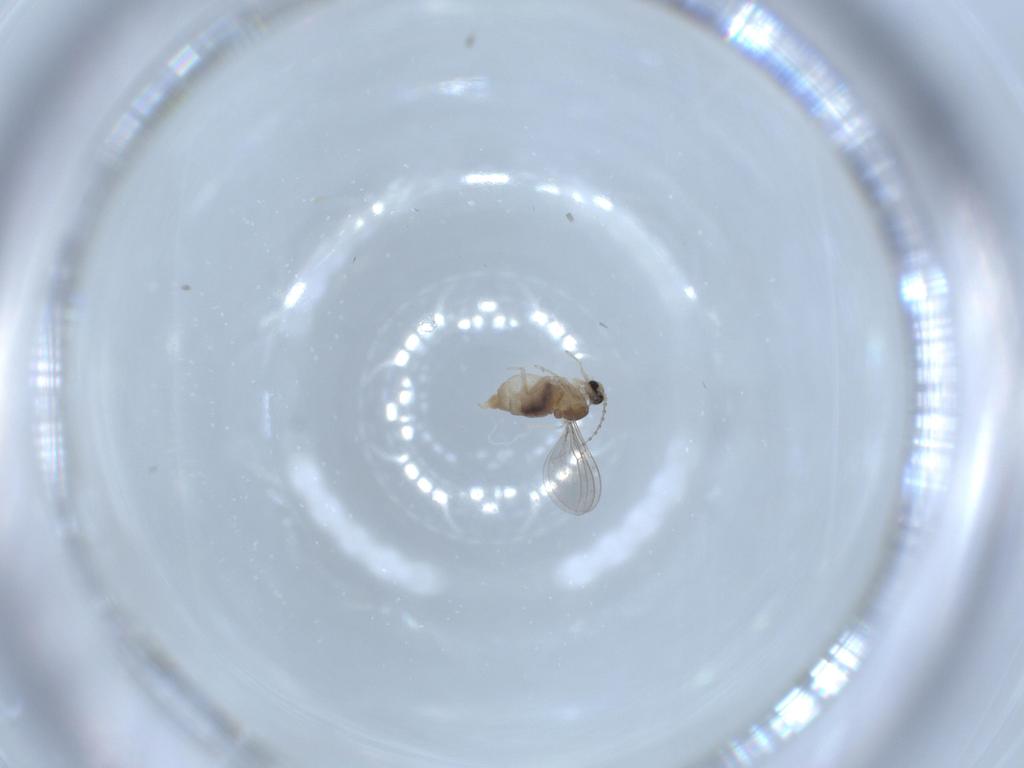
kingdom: Animalia
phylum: Arthropoda
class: Insecta
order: Diptera
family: Cecidomyiidae
